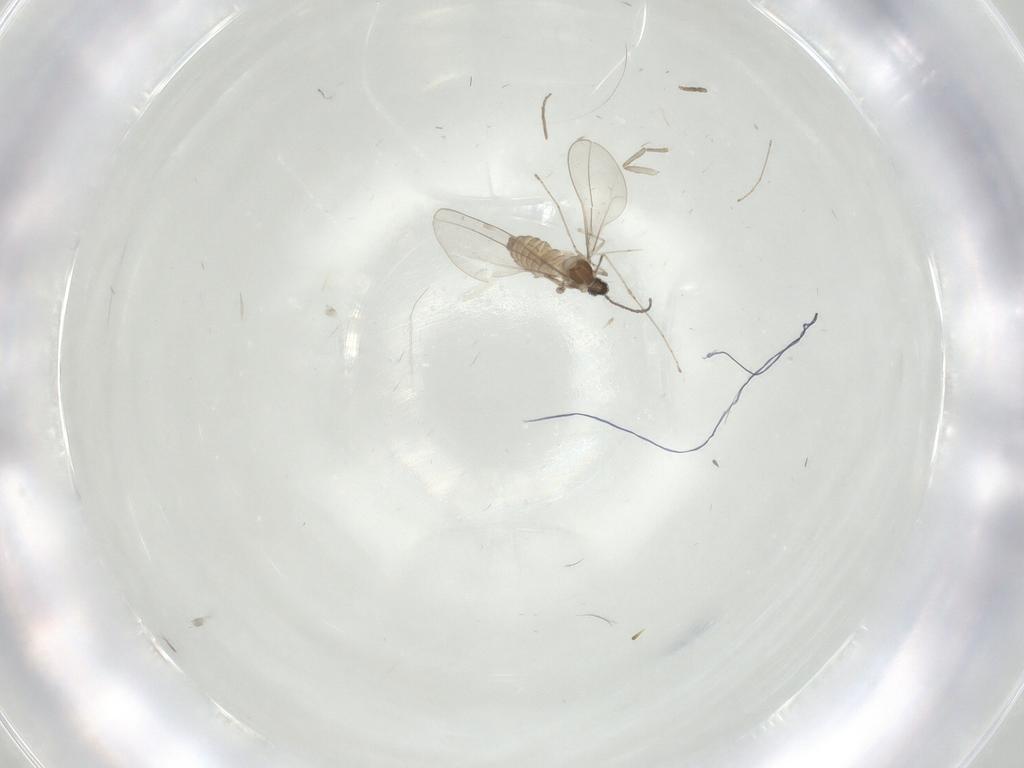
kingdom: Animalia
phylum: Arthropoda
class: Insecta
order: Diptera
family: Cecidomyiidae
